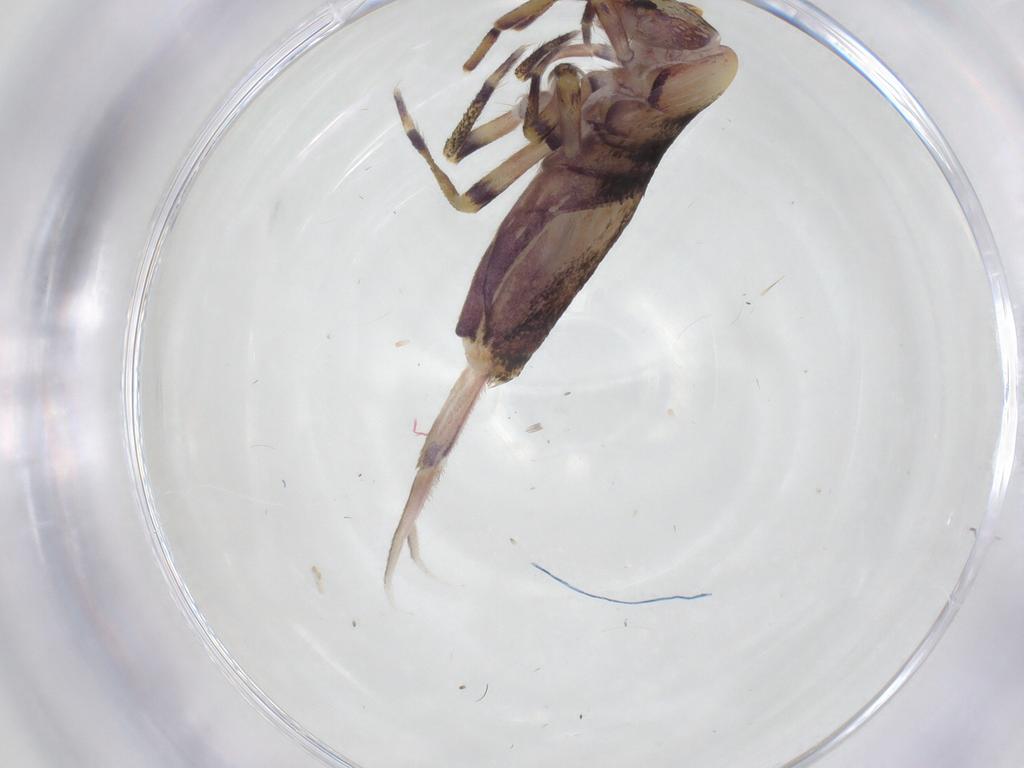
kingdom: Animalia
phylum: Arthropoda
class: Collembola
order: Entomobryomorpha
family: Entomobryidae
